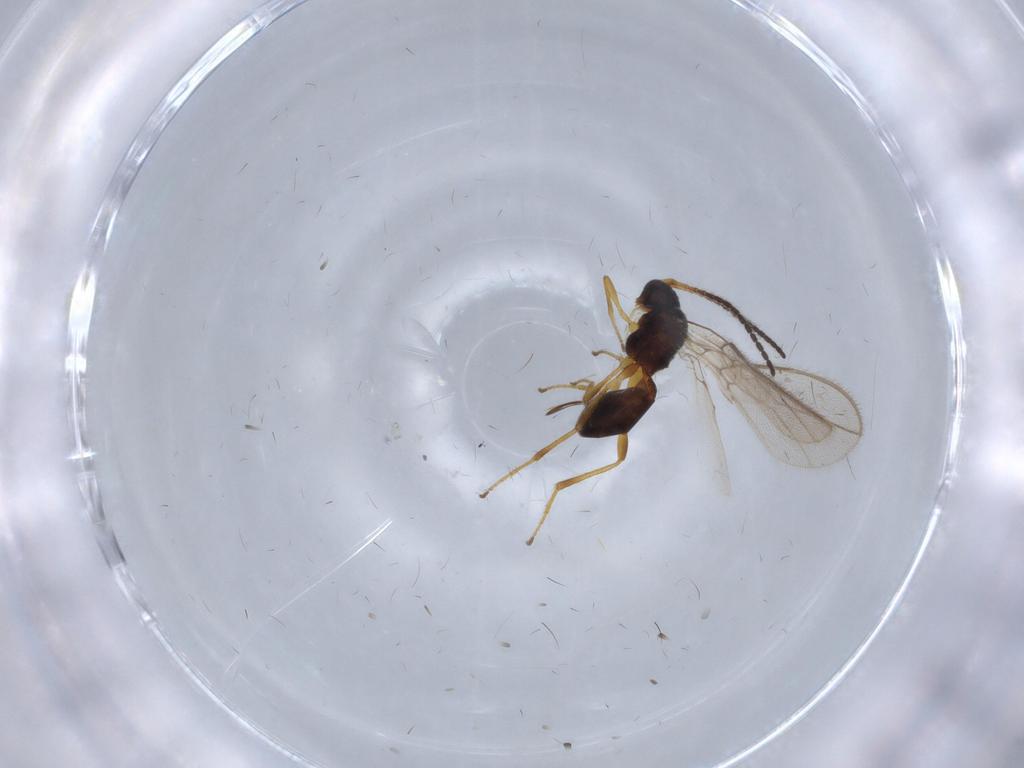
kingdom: Animalia
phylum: Arthropoda
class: Insecta
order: Hymenoptera
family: Braconidae
